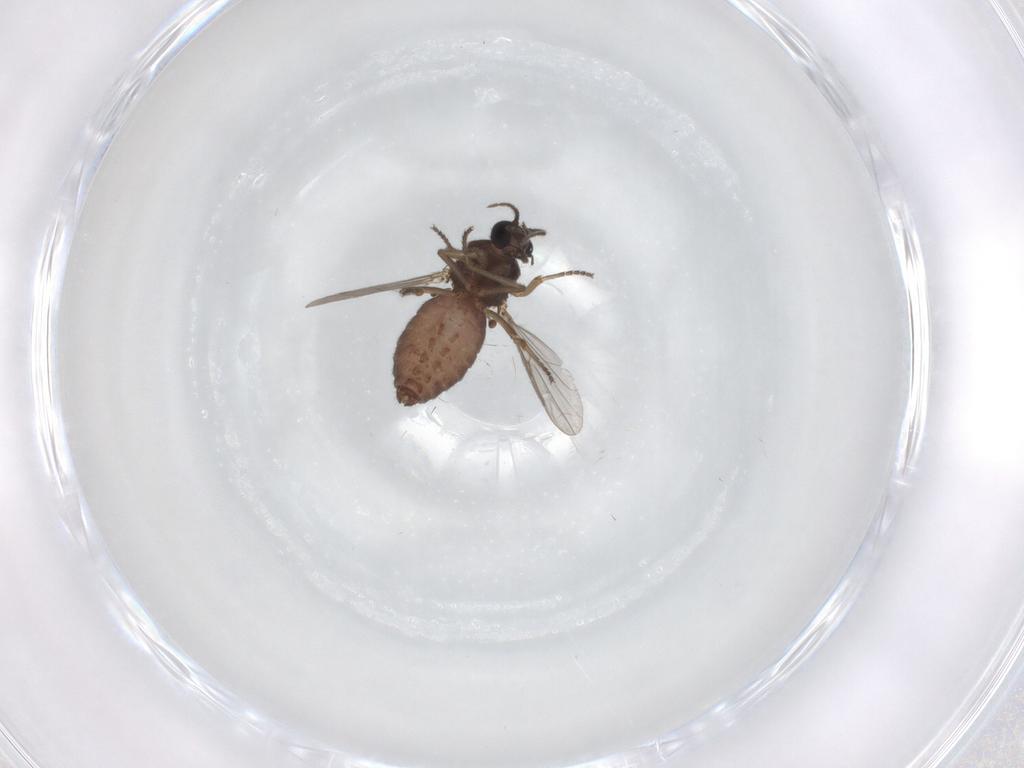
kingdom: Animalia
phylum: Arthropoda
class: Insecta
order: Diptera
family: Ceratopogonidae
